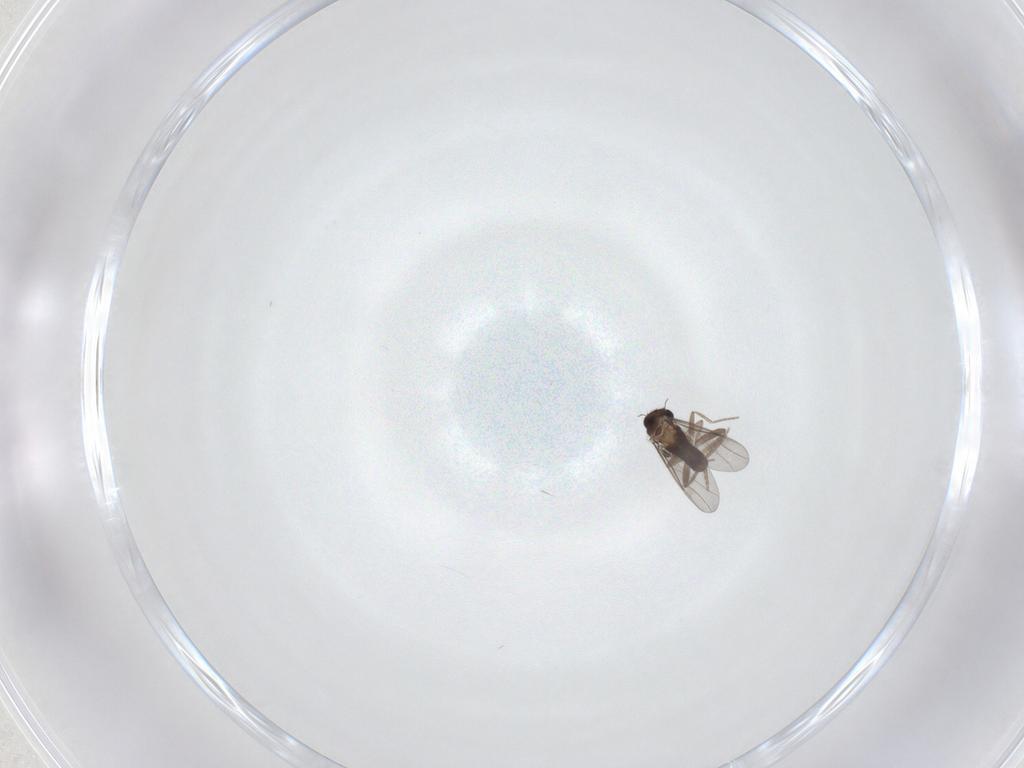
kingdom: Animalia
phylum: Arthropoda
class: Insecta
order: Diptera
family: Phoridae
